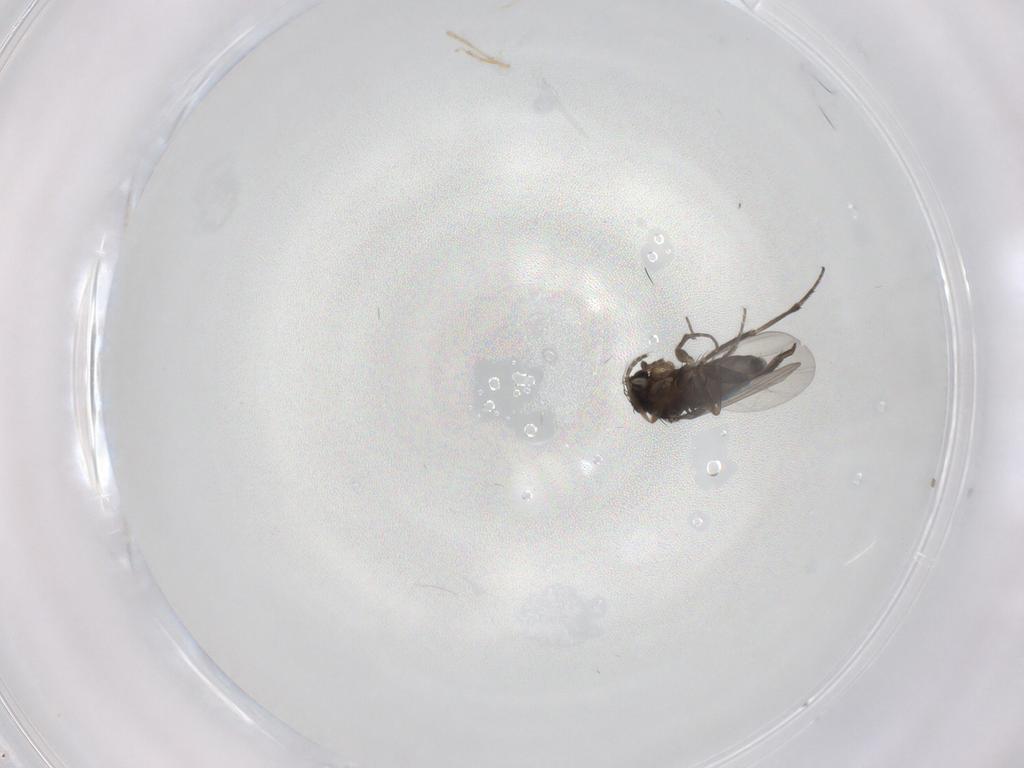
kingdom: Animalia
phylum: Arthropoda
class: Insecta
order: Diptera
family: Phoridae
